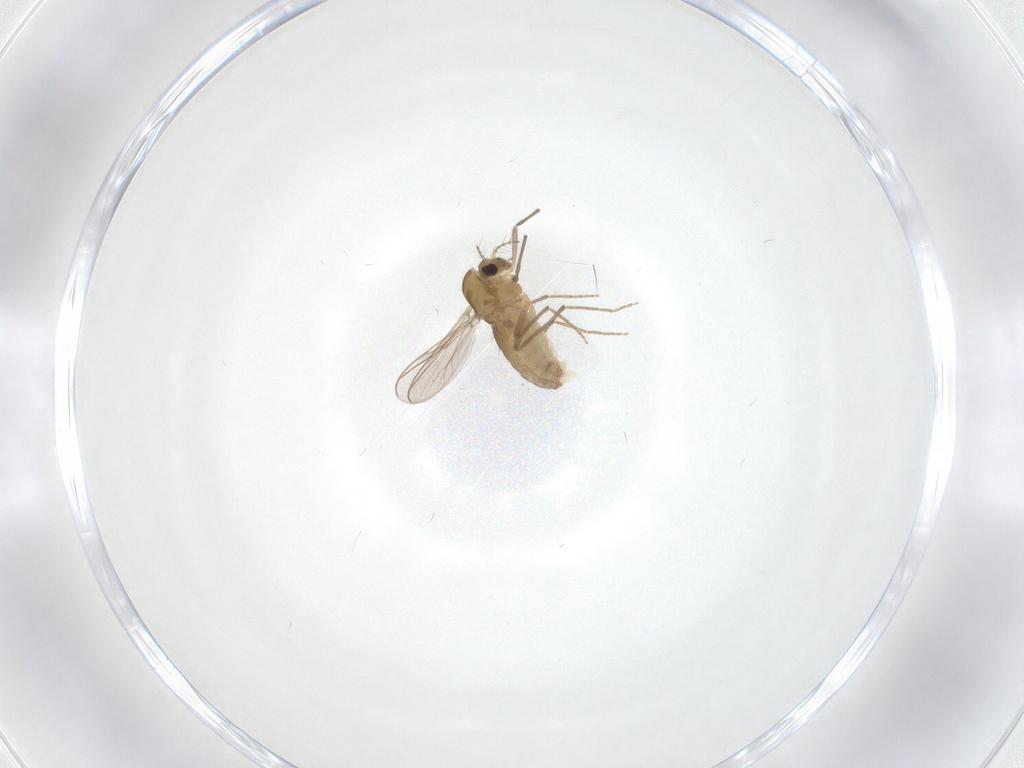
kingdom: Animalia
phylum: Arthropoda
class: Insecta
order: Diptera
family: Chironomidae
